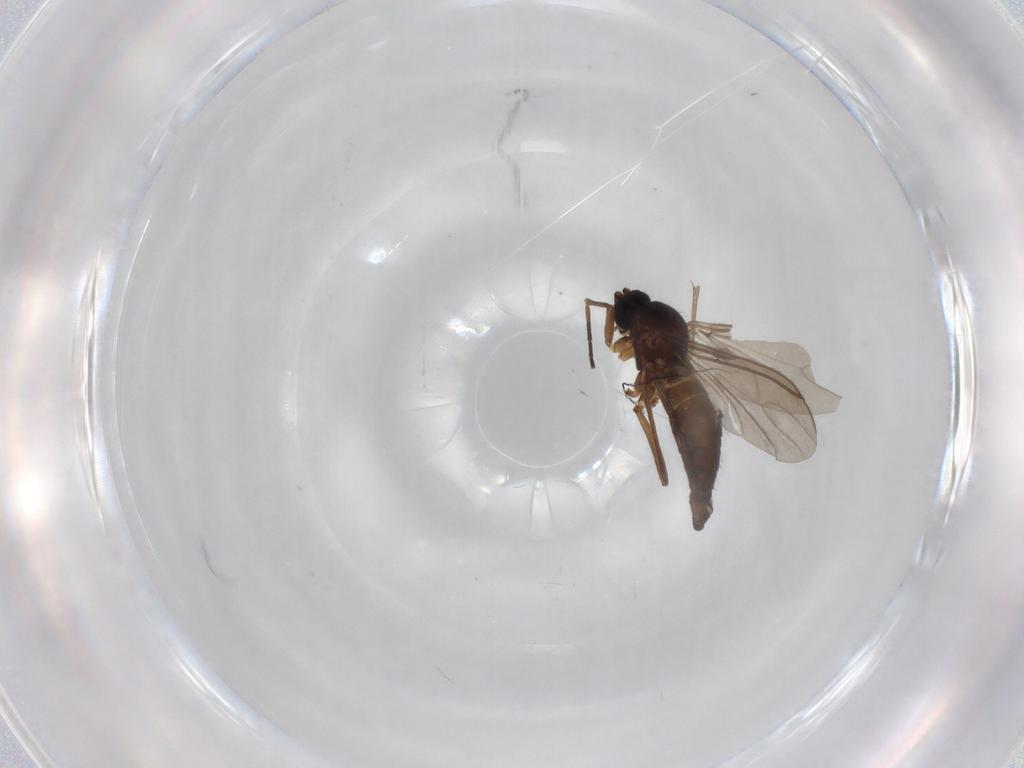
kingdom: Animalia
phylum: Arthropoda
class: Insecta
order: Diptera
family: Sciaridae
